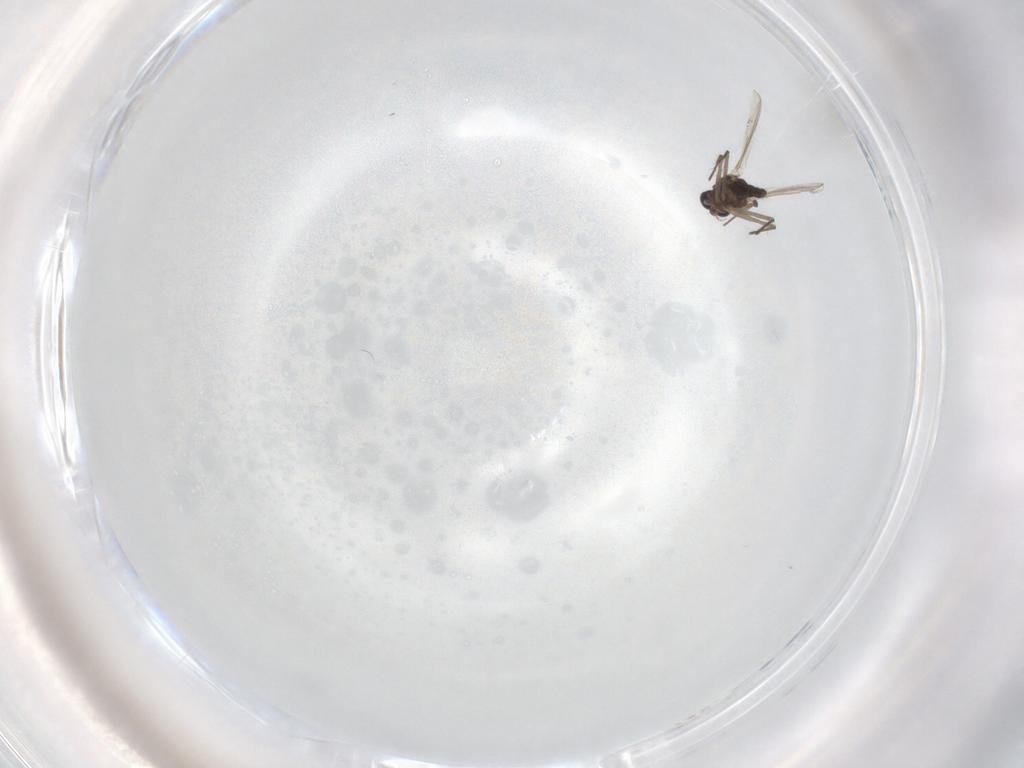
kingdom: Animalia
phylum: Arthropoda
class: Insecta
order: Diptera
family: Chironomidae
